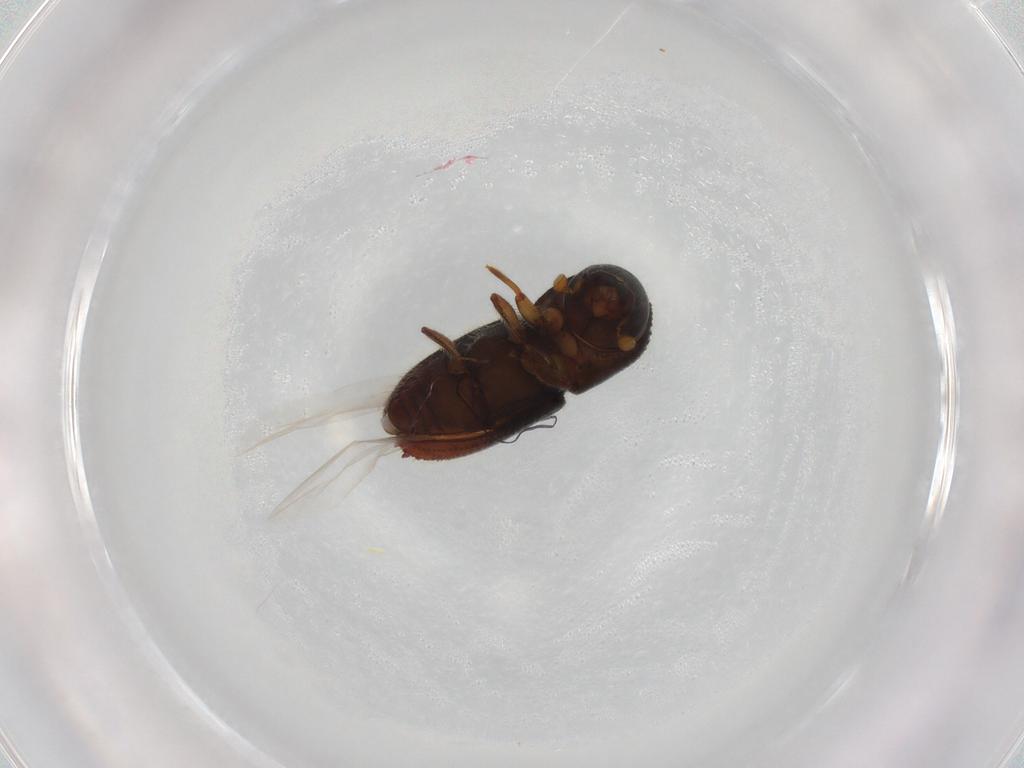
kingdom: Animalia
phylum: Arthropoda
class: Insecta
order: Coleoptera
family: Curculionidae
